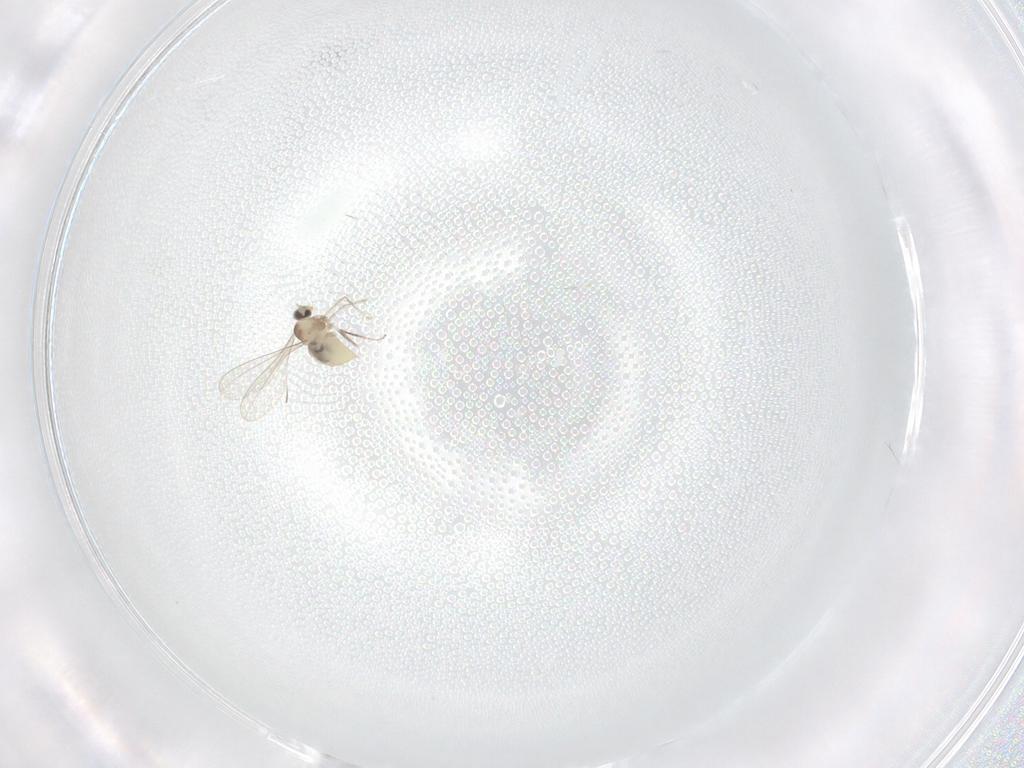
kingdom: Animalia
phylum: Arthropoda
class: Insecta
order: Diptera
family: Cecidomyiidae
